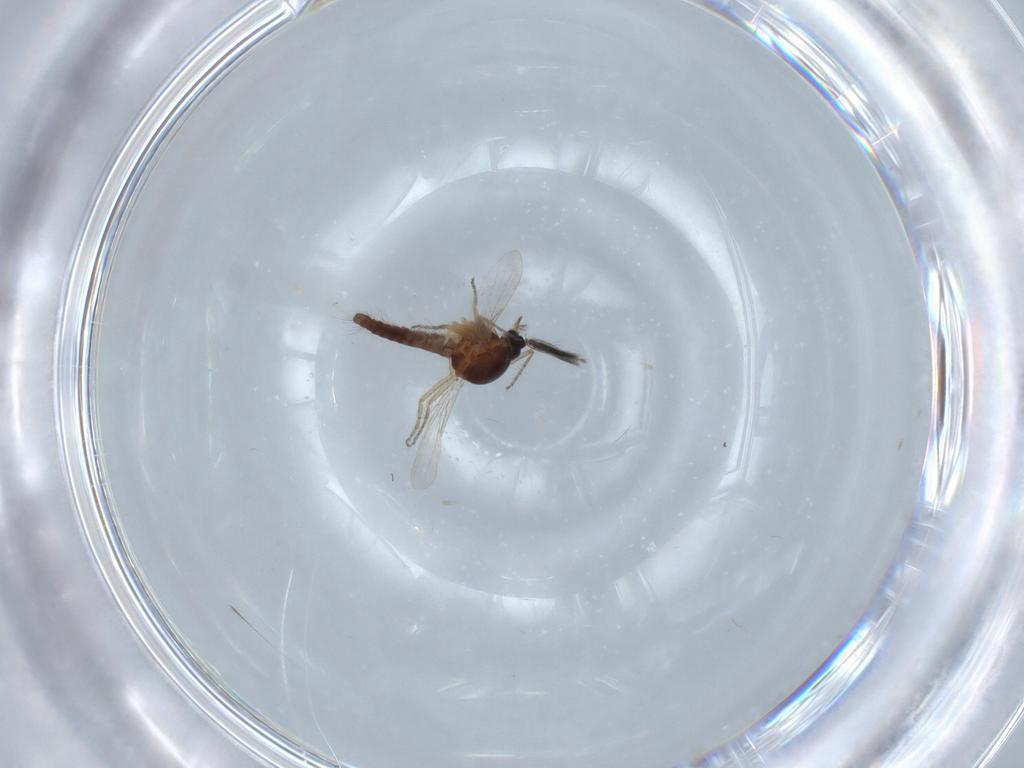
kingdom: Animalia
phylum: Arthropoda
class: Insecta
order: Diptera
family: Ceratopogonidae
